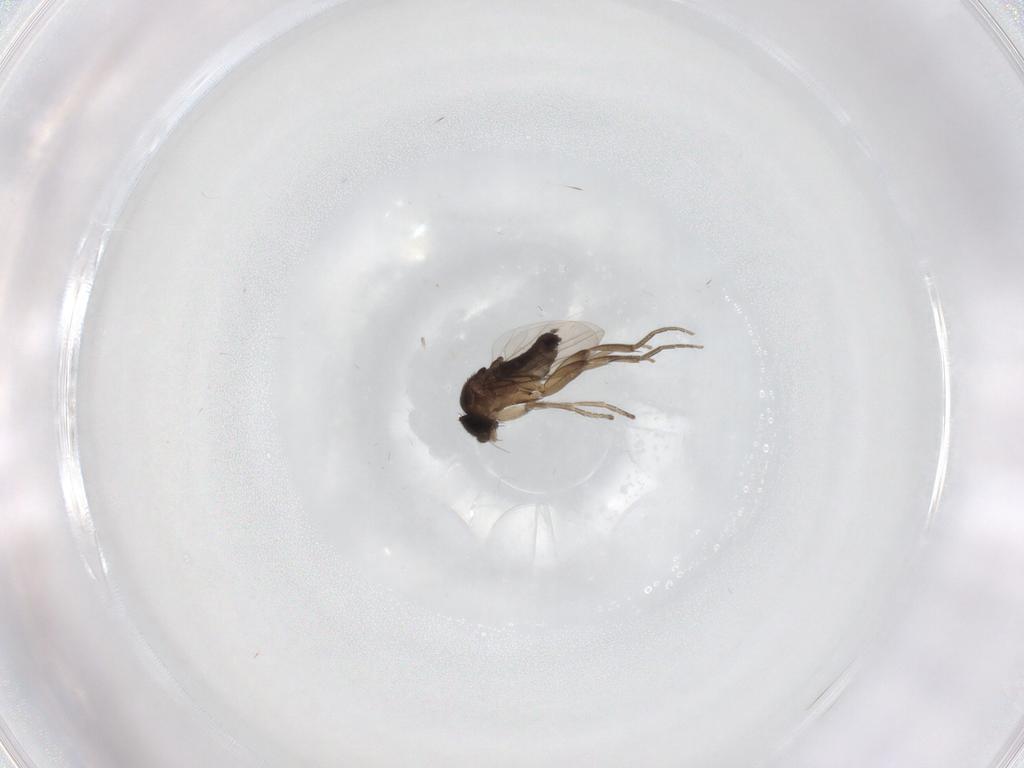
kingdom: Animalia
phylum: Arthropoda
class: Insecta
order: Diptera
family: Phoridae
